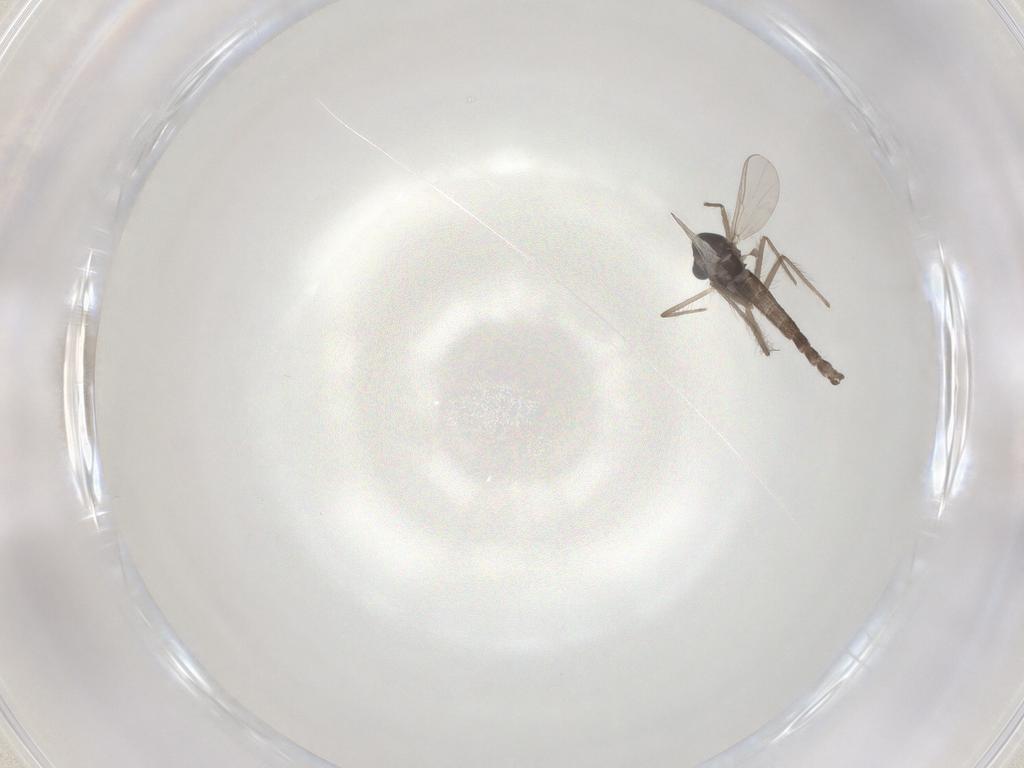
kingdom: Animalia
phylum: Arthropoda
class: Insecta
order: Diptera
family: Chironomidae
